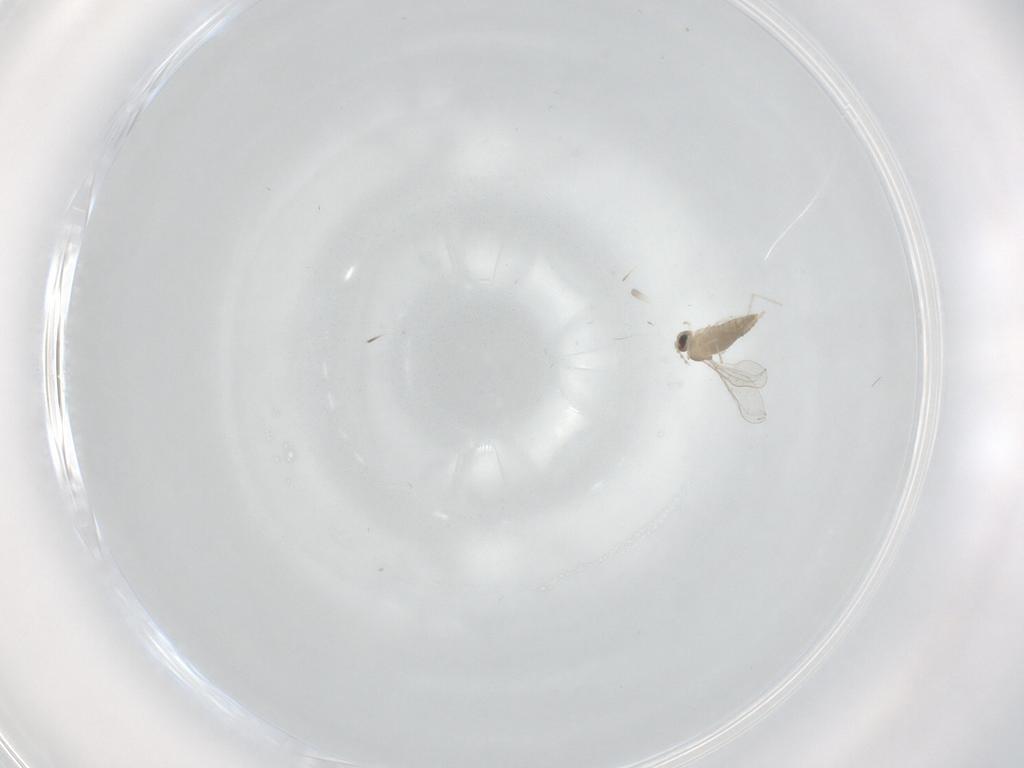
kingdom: Animalia
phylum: Arthropoda
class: Insecta
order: Diptera
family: Cecidomyiidae
